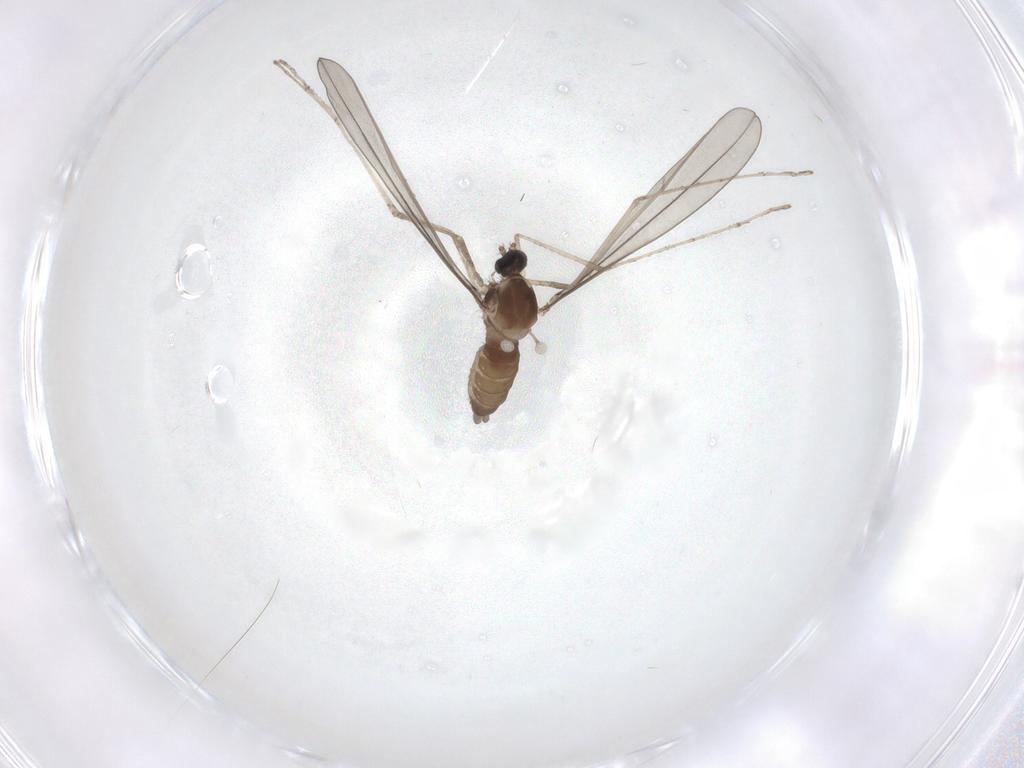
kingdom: Animalia
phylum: Arthropoda
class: Insecta
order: Diptera
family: Cecidomyiidae
